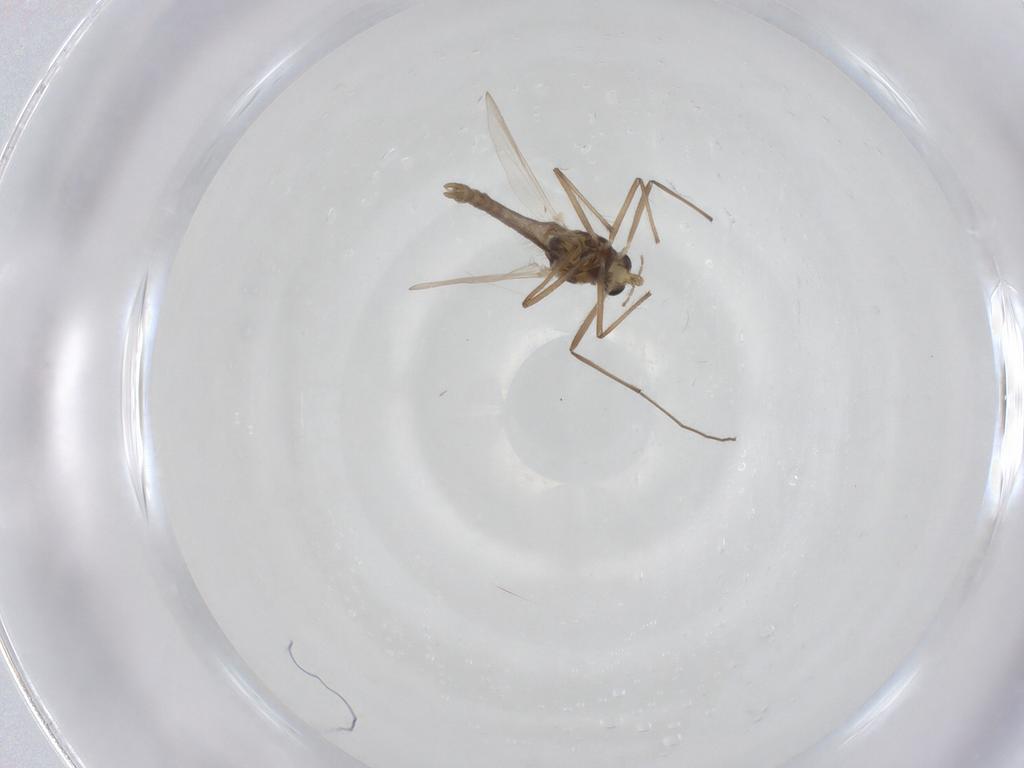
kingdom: Animalia
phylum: Arthropoda
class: Insecta
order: Diptera
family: Chironomidae
